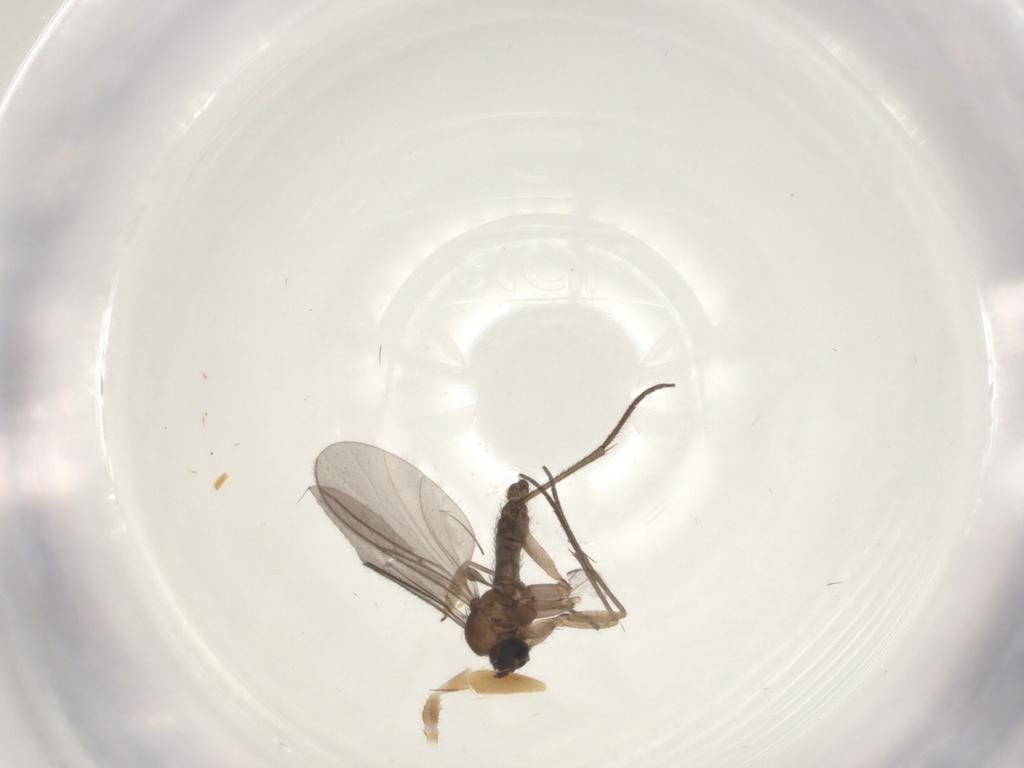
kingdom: Animalia
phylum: Arthropoda
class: Insecta
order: Diptera
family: Sciaridae
